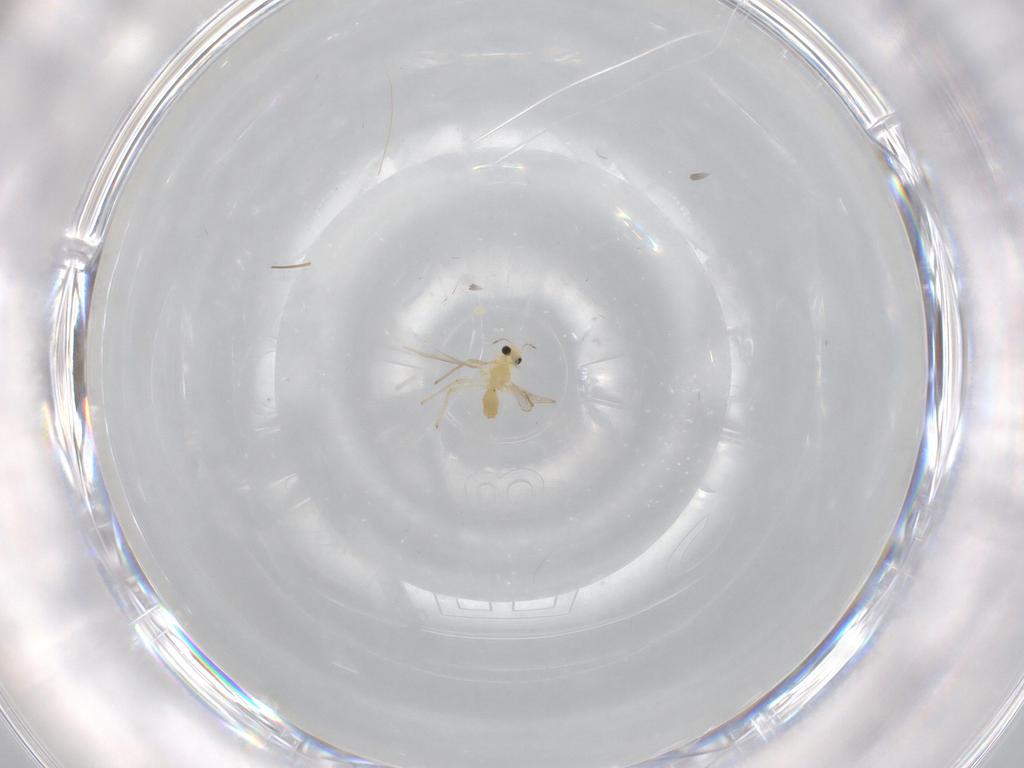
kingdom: Animalia
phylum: Arthropoda
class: Insecta
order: Diptera
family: Chironomidae
